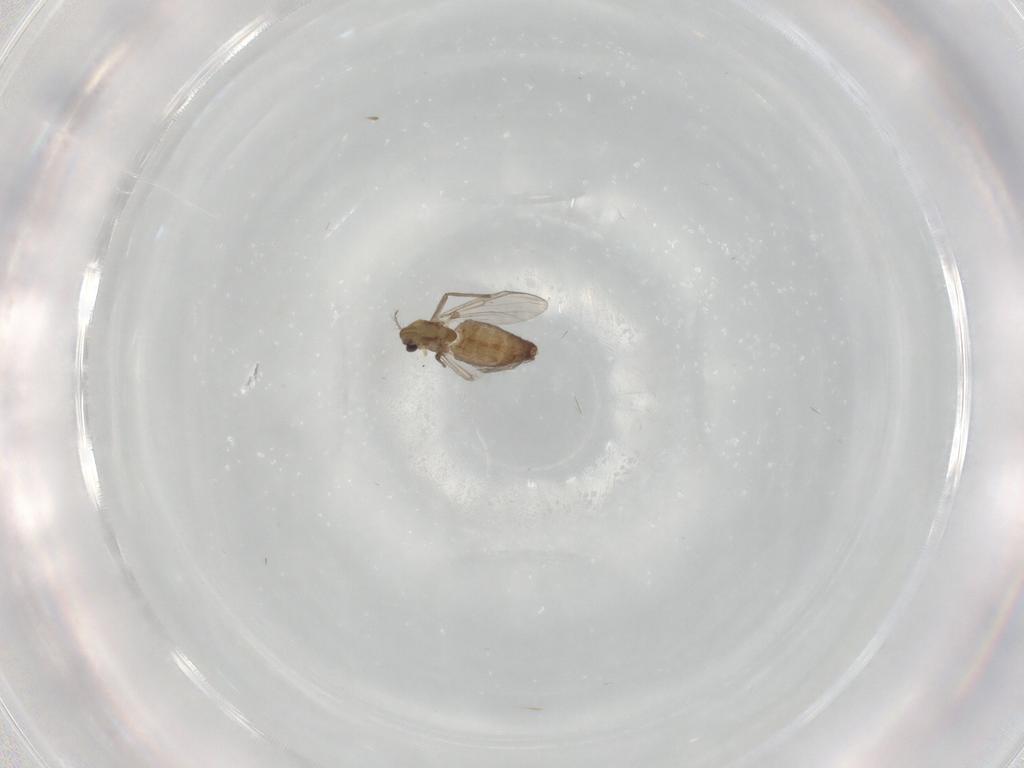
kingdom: Animalia
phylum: Arthropoda
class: Insecta
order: Diptera
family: Chironomidae
